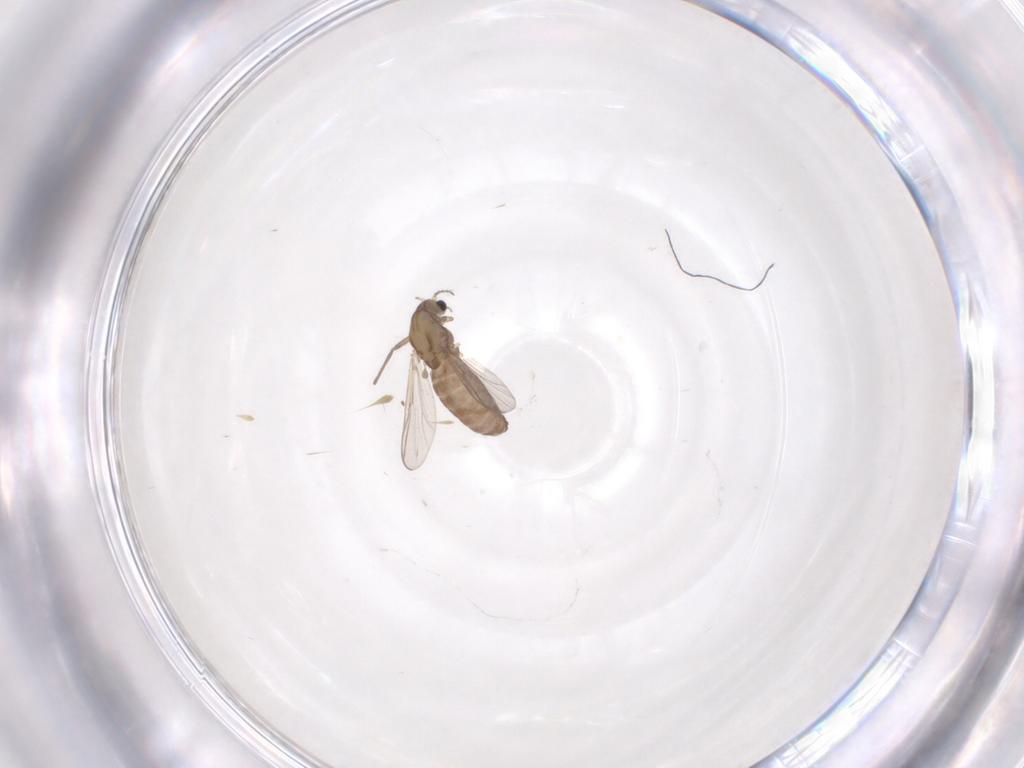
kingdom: Animalia
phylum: Arthropoda
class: Insecta
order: Diptera
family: Chironomidae
